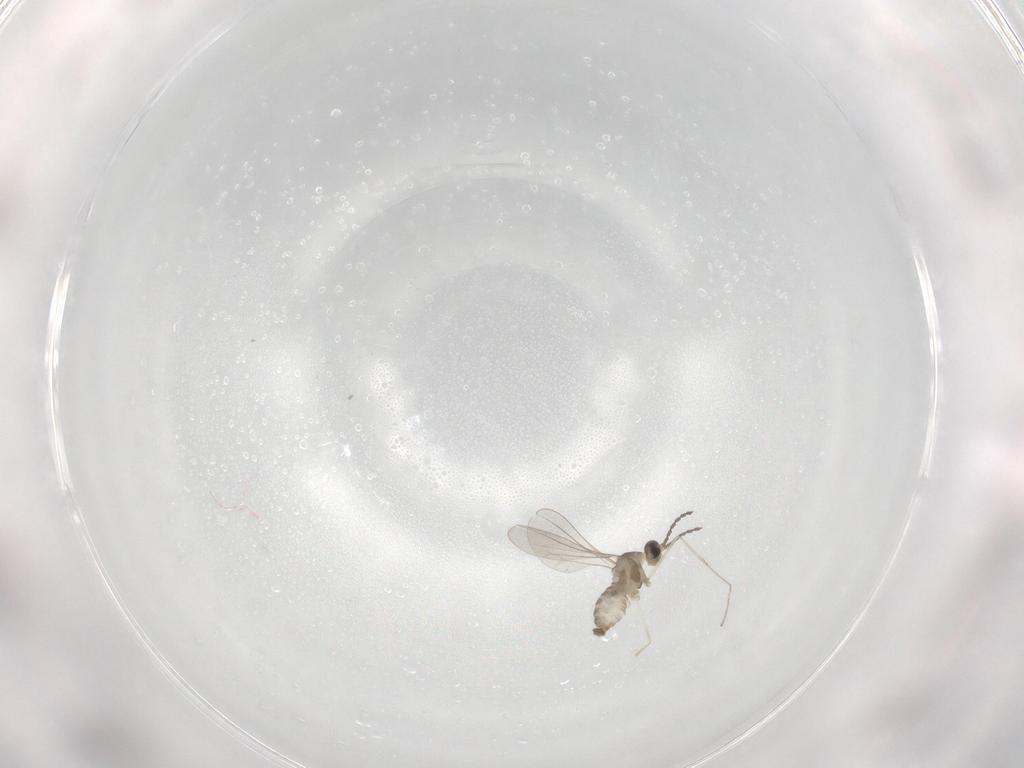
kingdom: Animalia
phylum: Arthropoda
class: Insecta
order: Diptera
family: Cecidomyiidae
